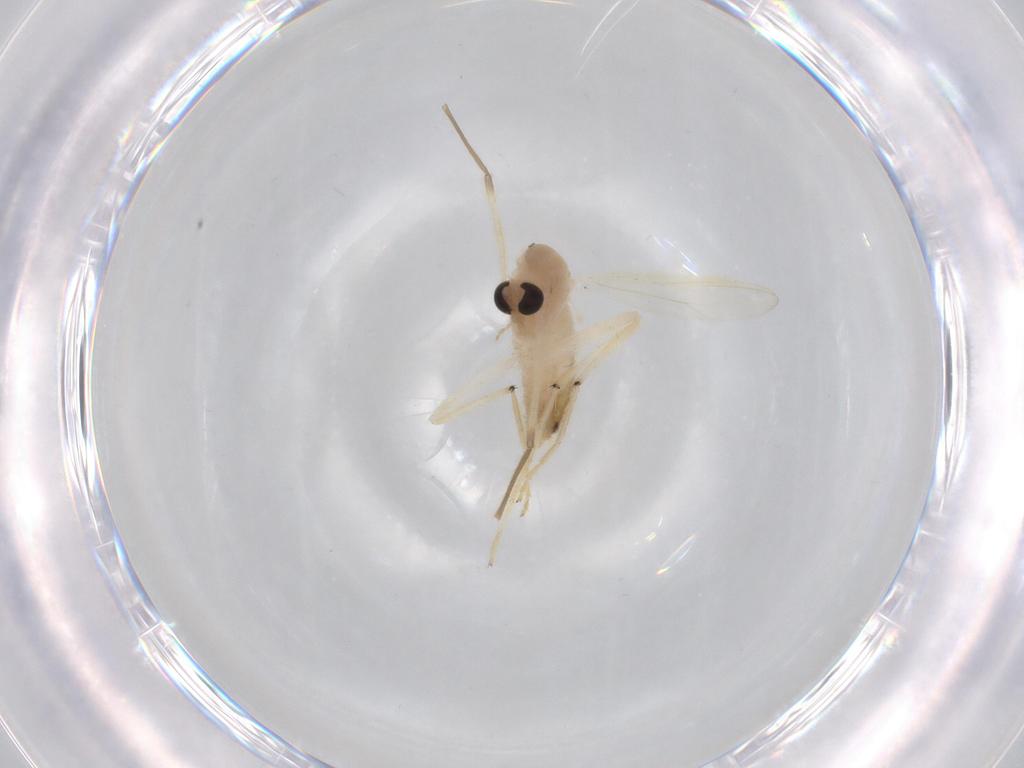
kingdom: Animalia
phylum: Arthropoda
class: Insecta
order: Diptera
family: Chironomidae
